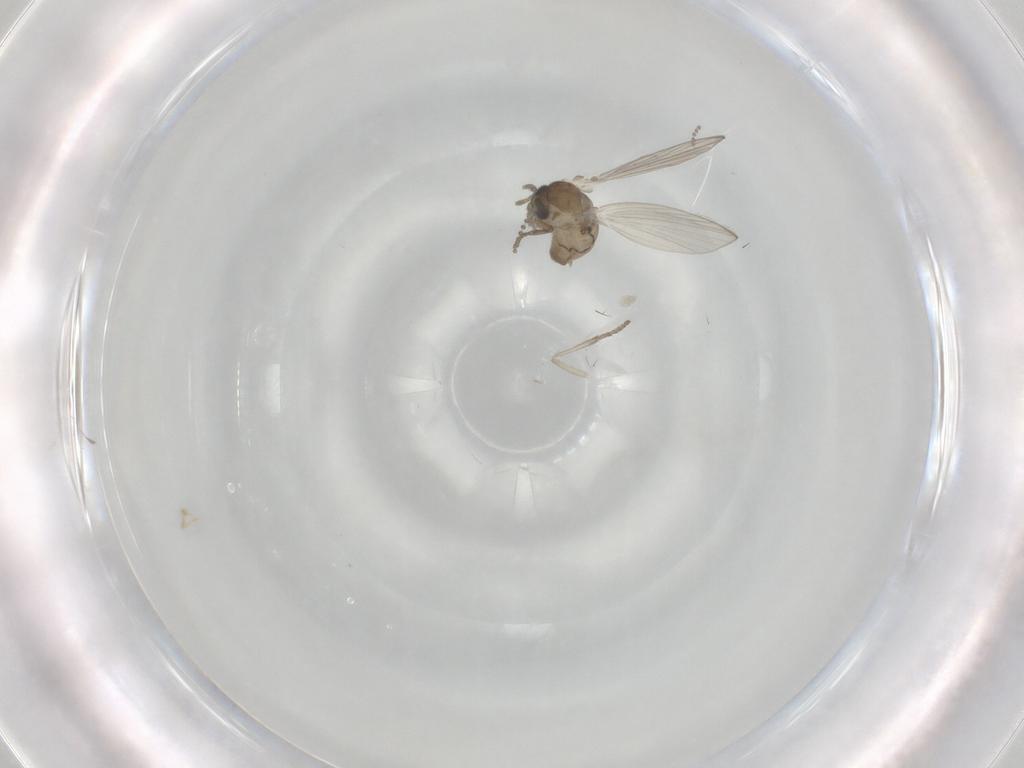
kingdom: Animalia
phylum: Arthropoda
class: Insecta
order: Diptera
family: Psychodidae
